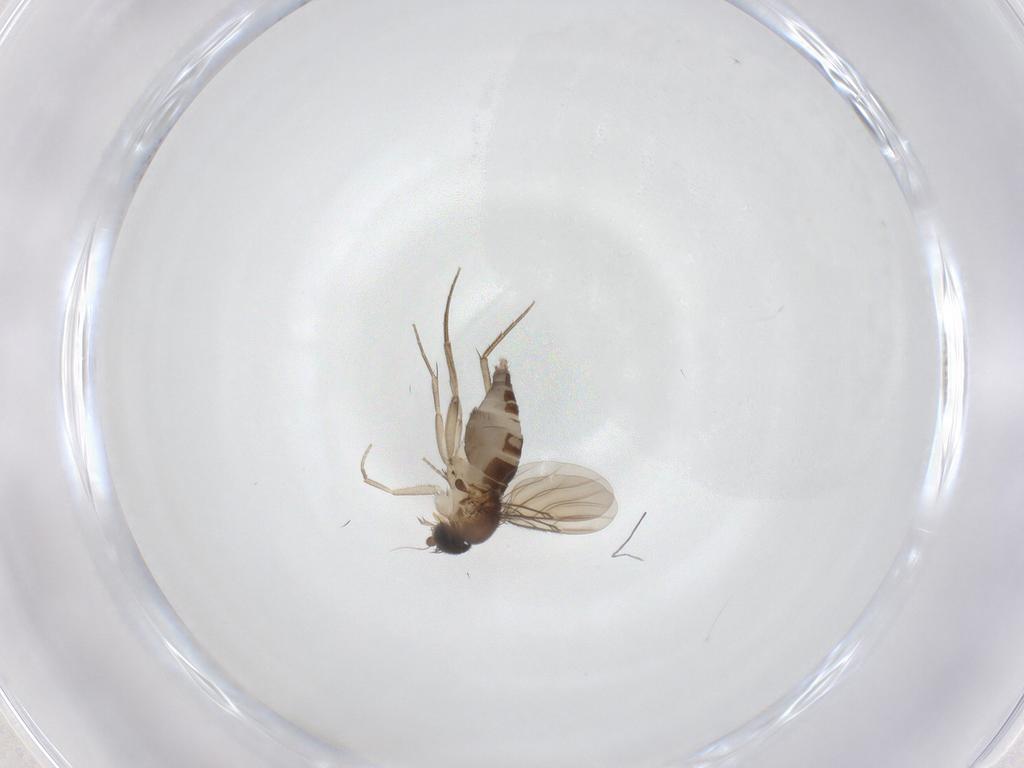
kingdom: Animalia
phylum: Arthropoda
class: Insecta
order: Diptera
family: Phoridae
